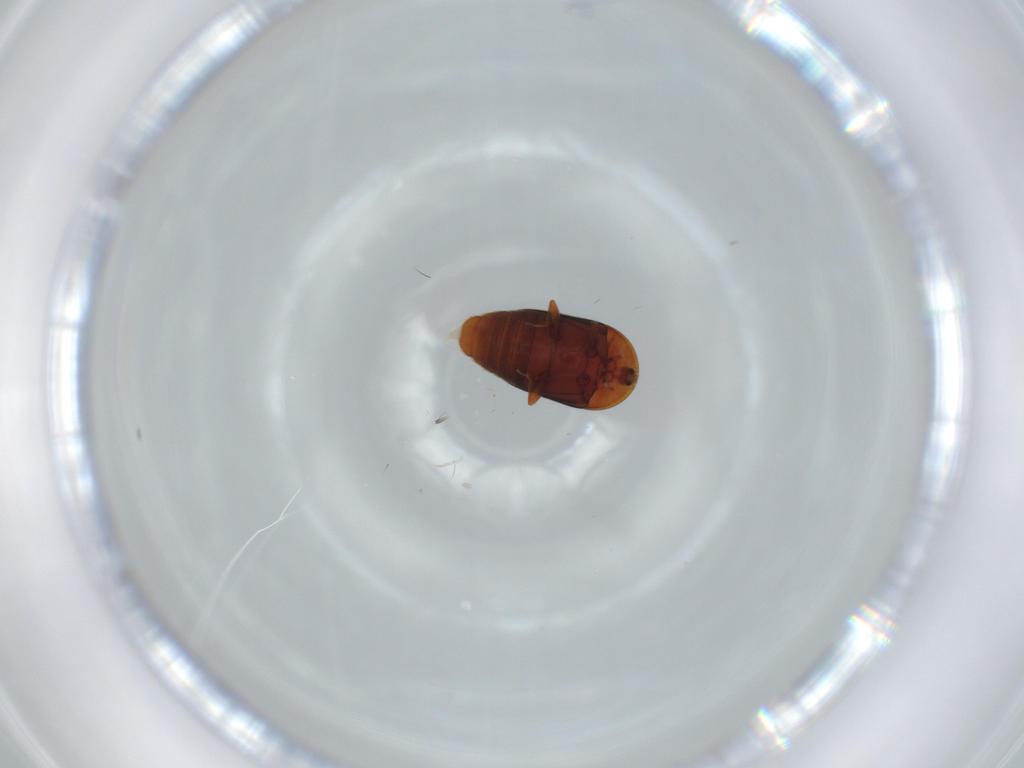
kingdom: Animalia
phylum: Arthropoda
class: Insecta
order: Coleoptera
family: Corylophidae
